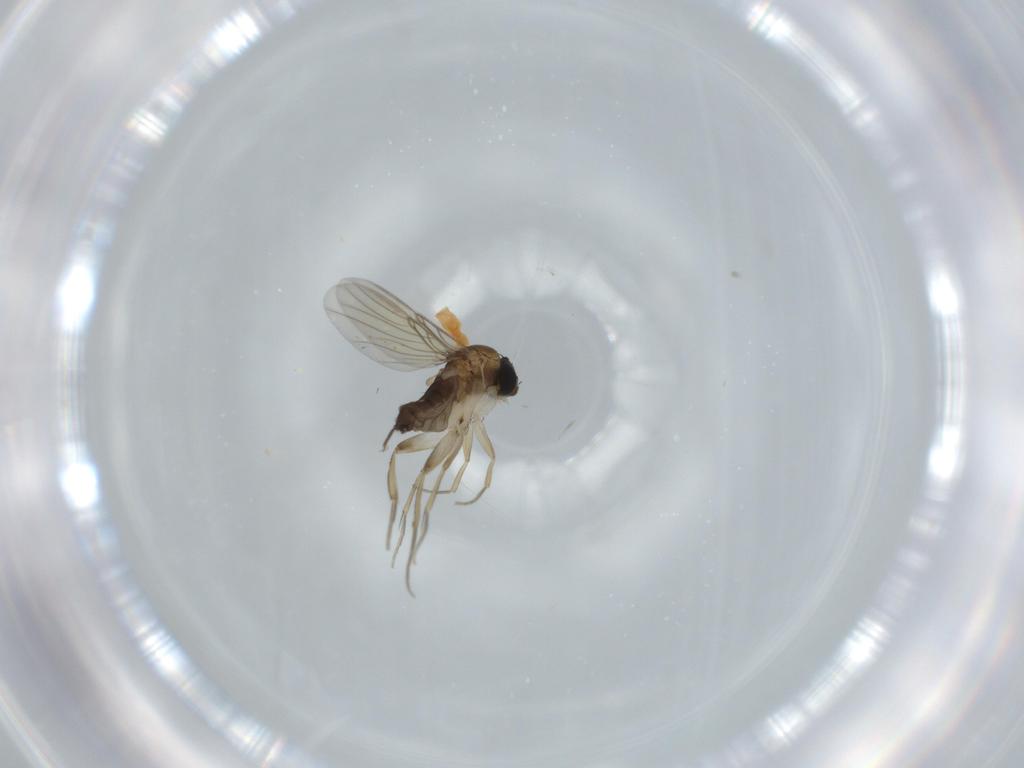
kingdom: Animalia
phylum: Arthropoda
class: Insecta
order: Diptera
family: Phoridae
